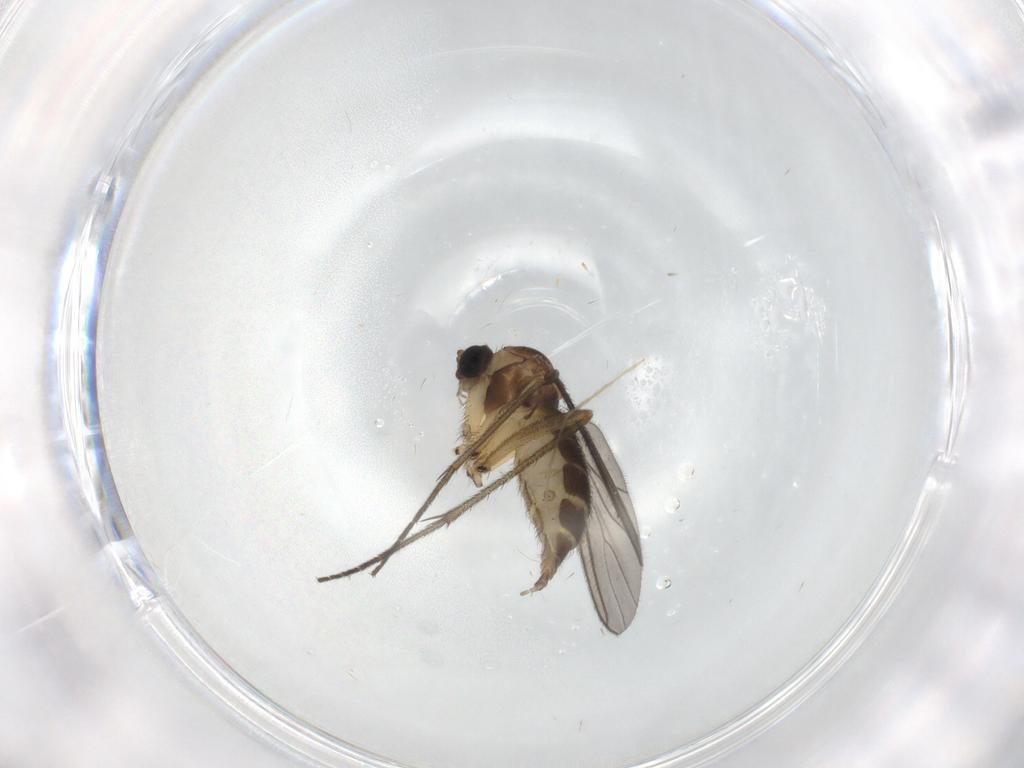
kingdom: Animalia
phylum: Arthropoda
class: Insecta
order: Diptera
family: Sciaridae
